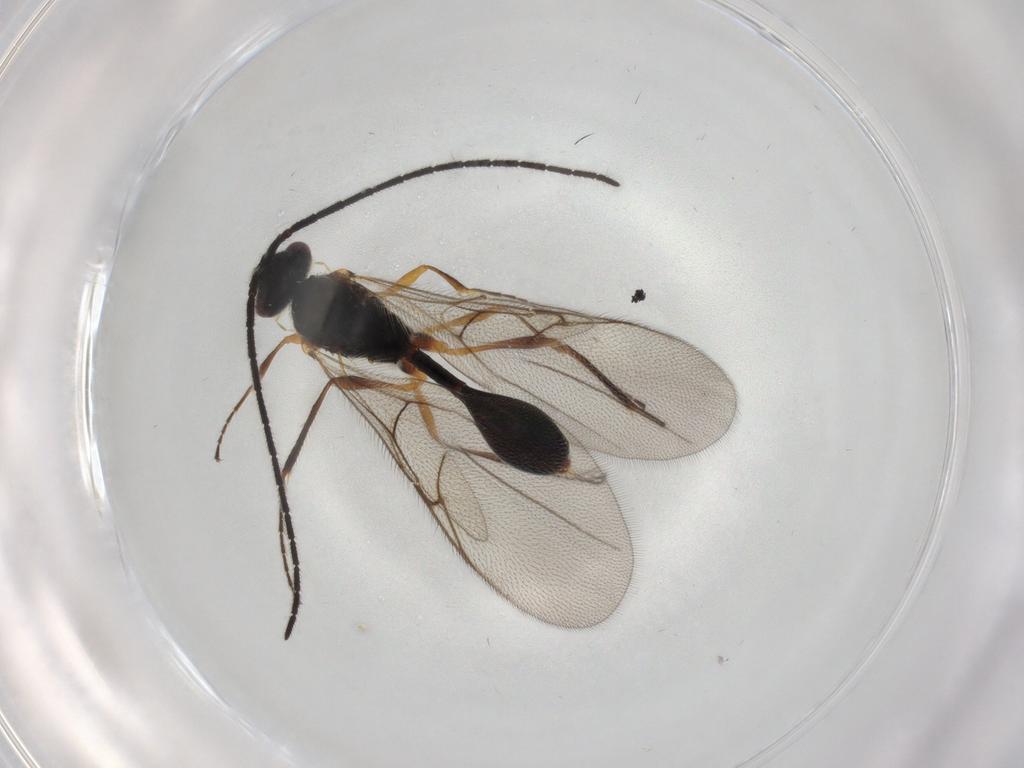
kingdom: Animalia
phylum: Arthropoda
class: Insecta
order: Hymenoptera
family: Diapriidae
